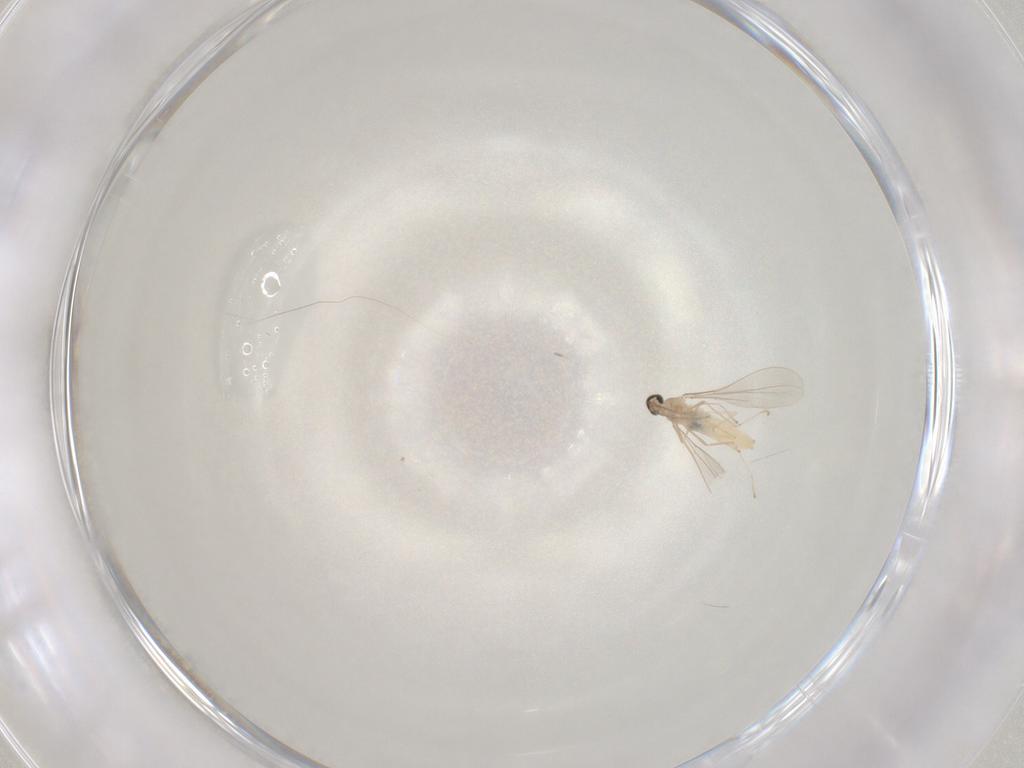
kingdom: Animalia
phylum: Arthropoda
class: Insecta
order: Diptera
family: Cecidomyiidae
